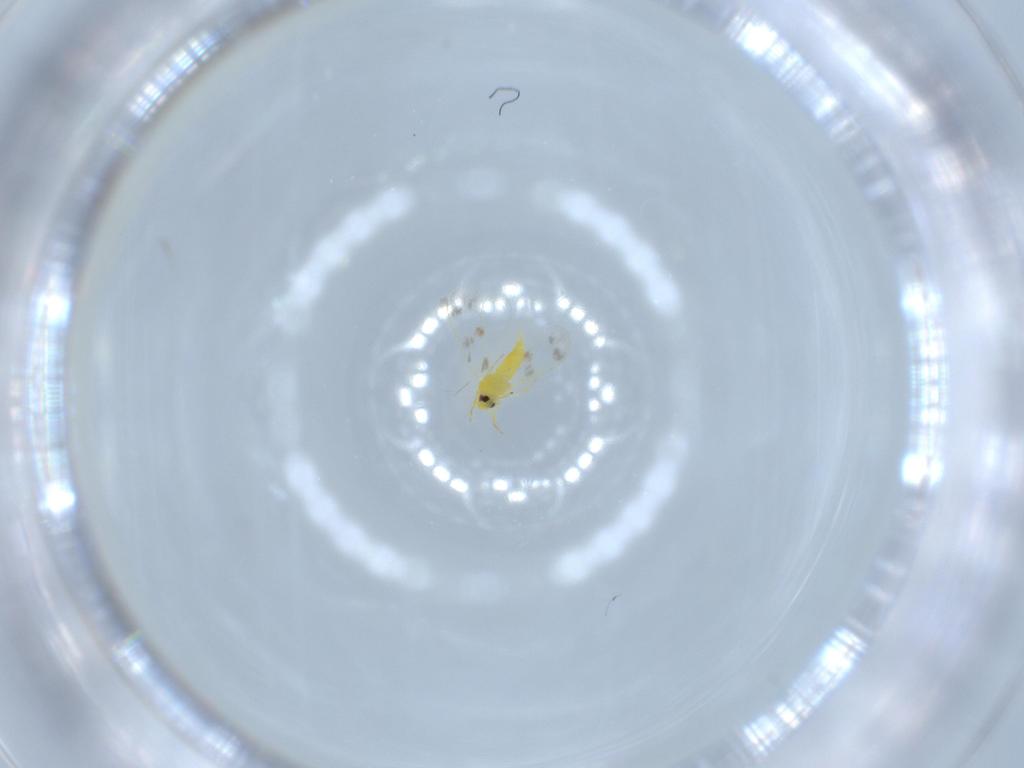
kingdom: Animalia
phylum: Arthropoda
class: Insecta
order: Hemiptera
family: Aleyrodidae
